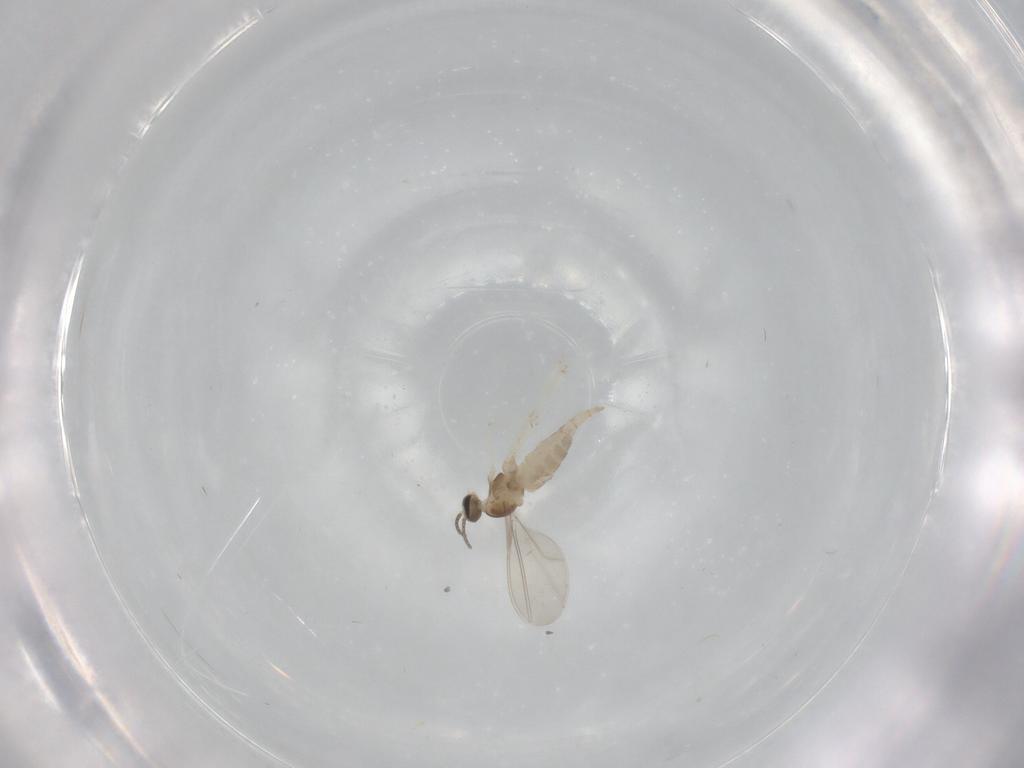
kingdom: Animalia
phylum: Arthropoda
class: Insecta
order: Diptera
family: Cecidomyiidae
